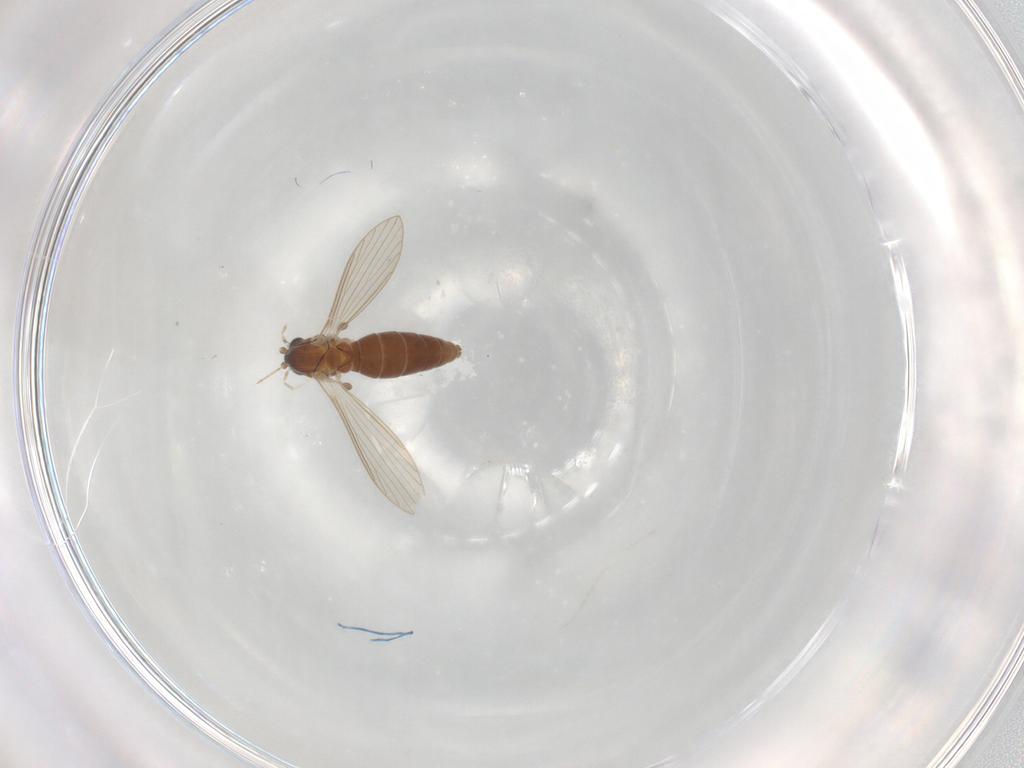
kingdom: Animalia
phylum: Arthropoda
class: Insecta
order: Diptera
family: Psychodidae
